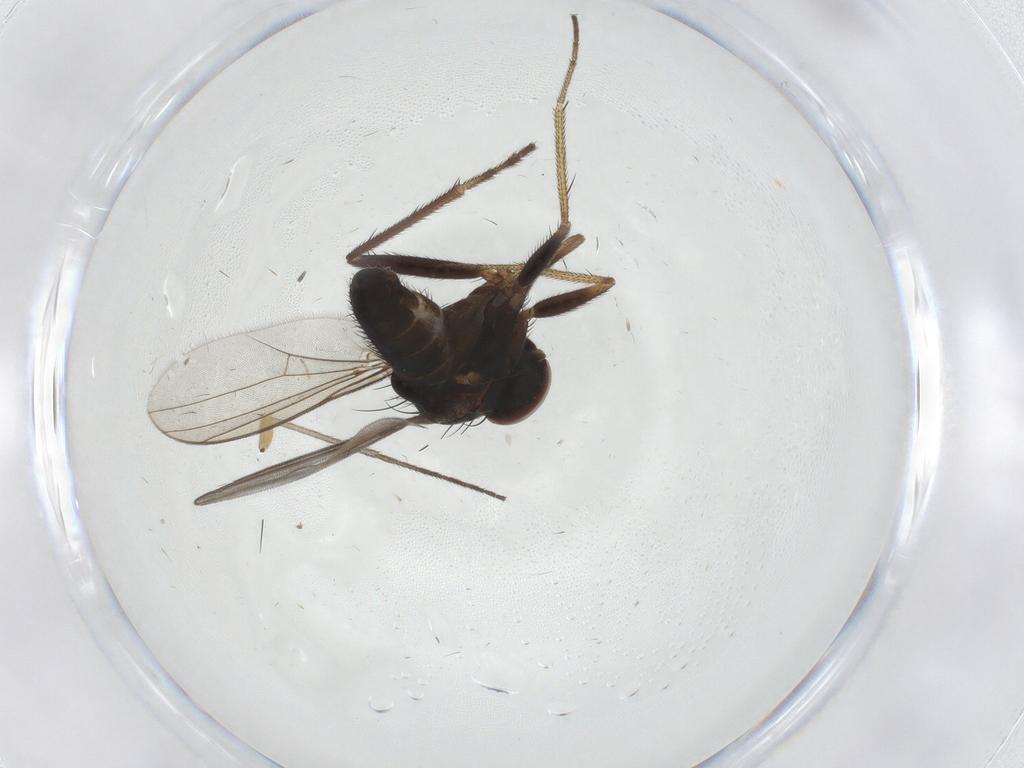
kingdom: Animalia
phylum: Arthropoda
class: Insecta
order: Diptera
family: Sciaridae
